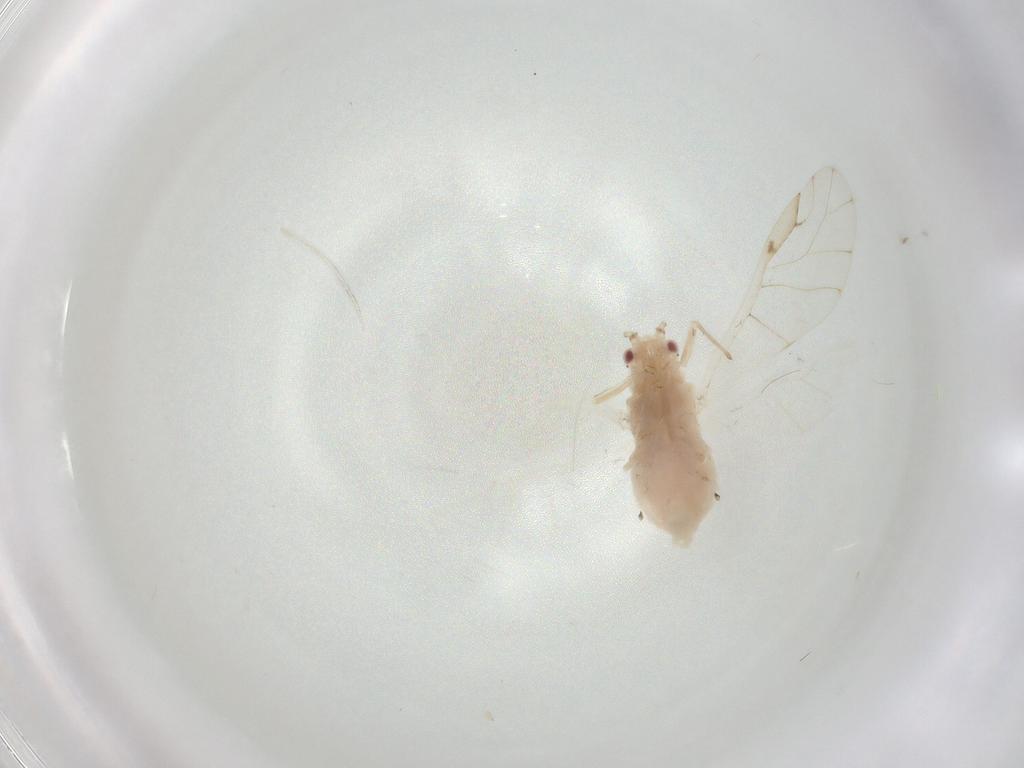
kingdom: Animalia
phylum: Arthropoda
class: Insecta
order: Hemiptera
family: Aphididae
